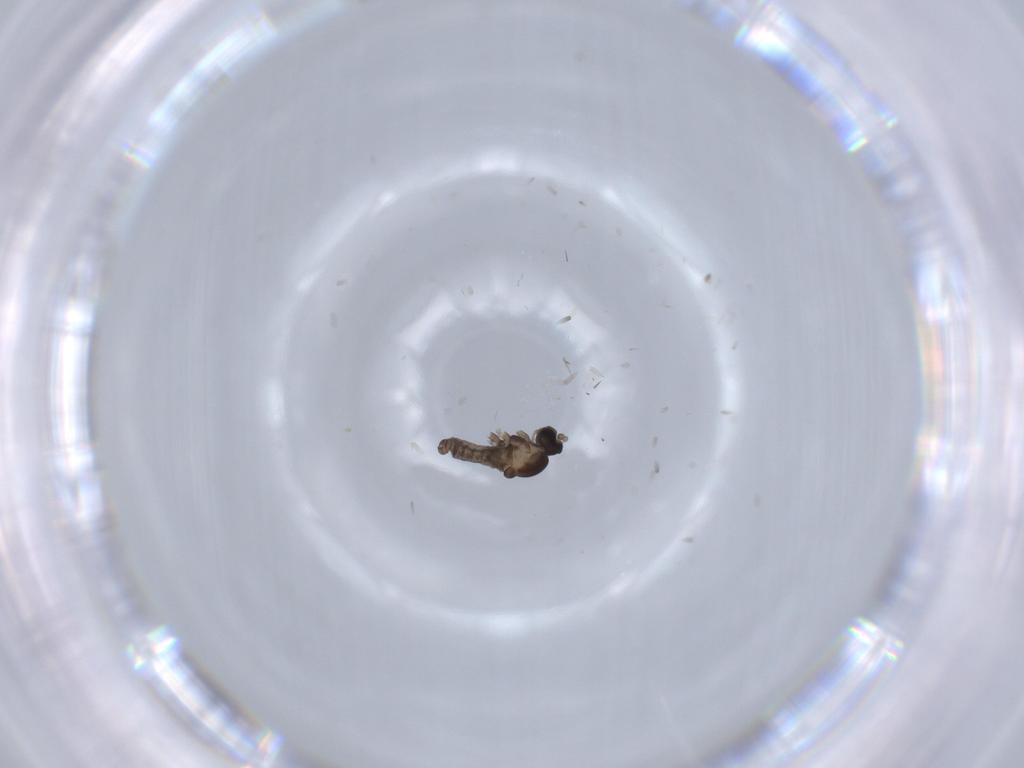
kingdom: Animalia
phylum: Arthropoda
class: Insecta
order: Diptera
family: Cecidomyiidae
